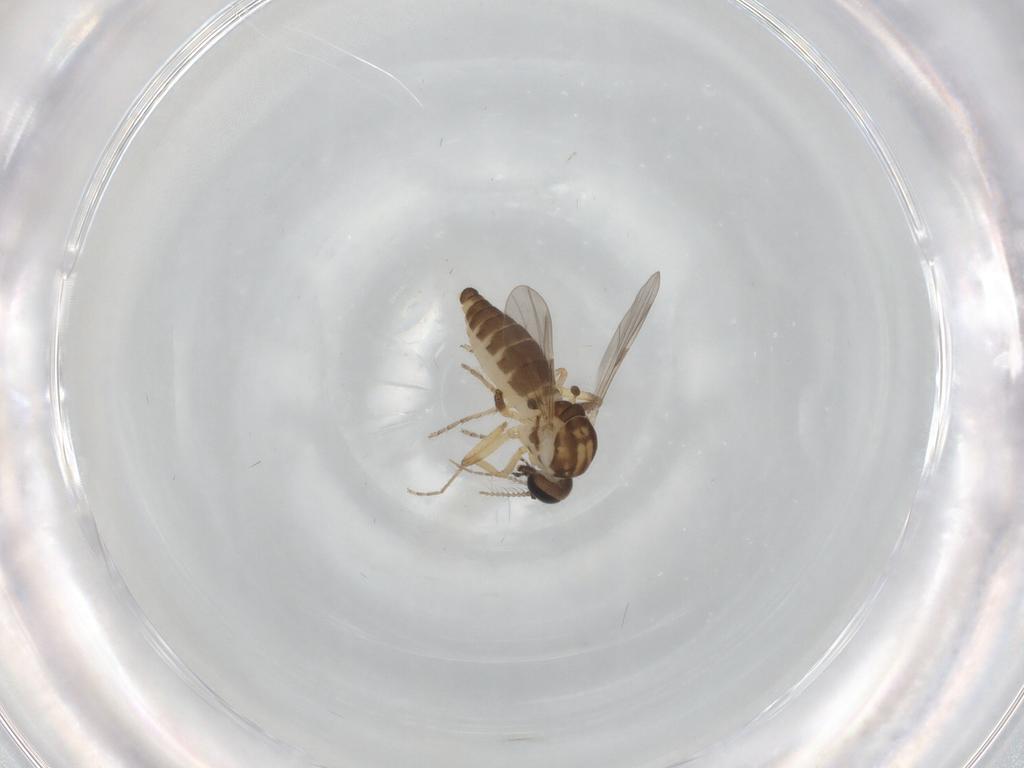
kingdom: Animalia
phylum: Arthropoda
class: Insecta
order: Diptera
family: Ceratopogonidae
